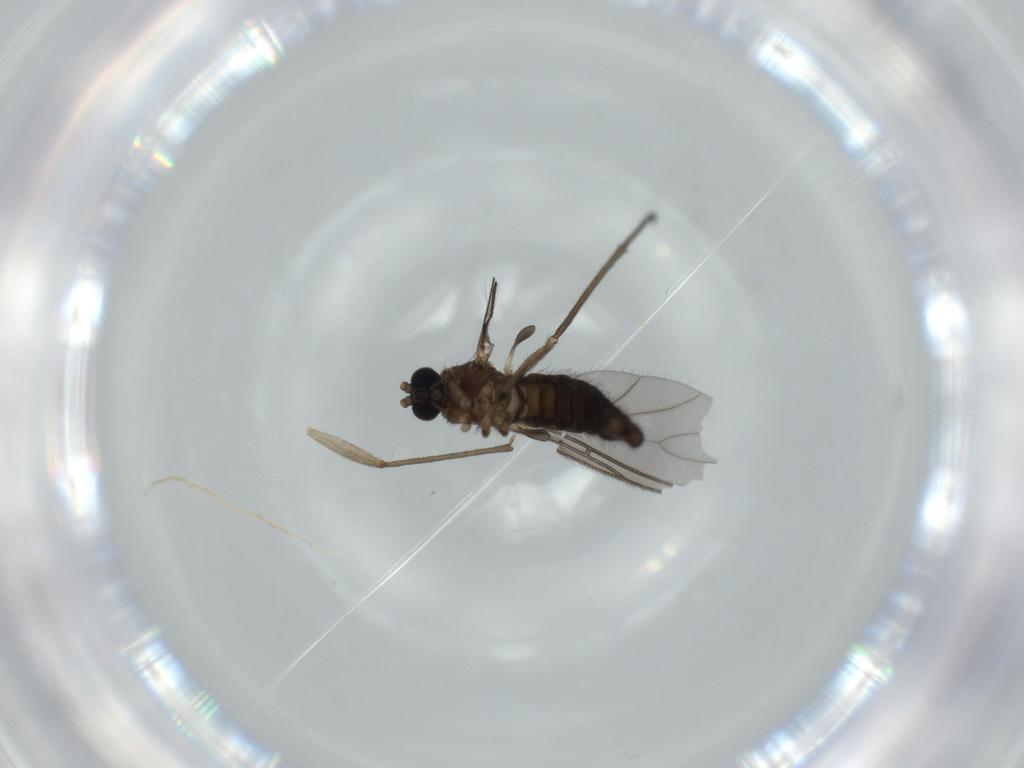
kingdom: Animalia
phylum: Arthropoda
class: Insecta
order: Diptera
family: Sciaridae
